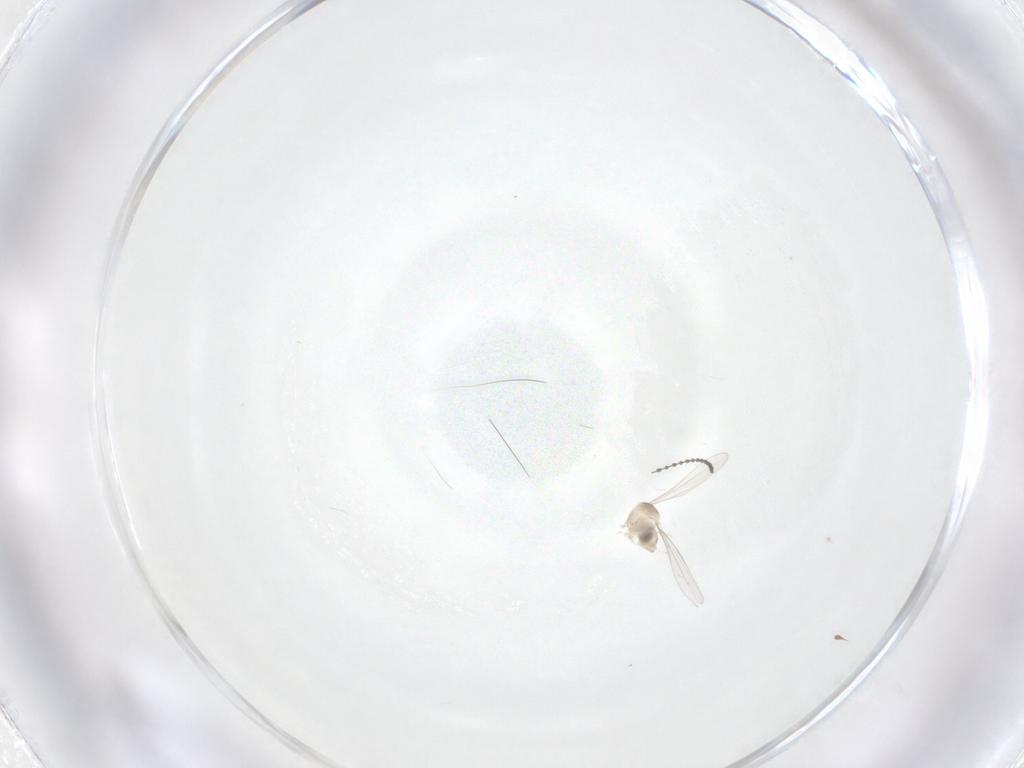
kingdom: Animalia
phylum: Arthropoda
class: Insecta
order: Diptera
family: Cecidomyiidae
